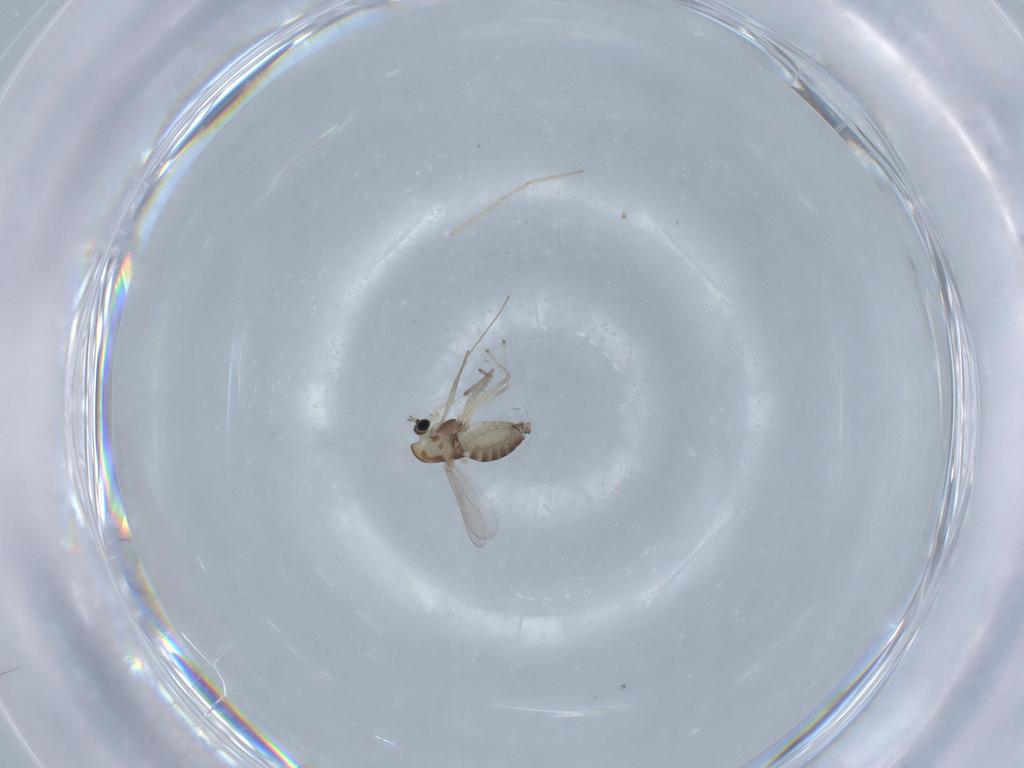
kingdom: Animalia
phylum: Arthropoda
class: Insecta
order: Diptera
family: Chironomidae
